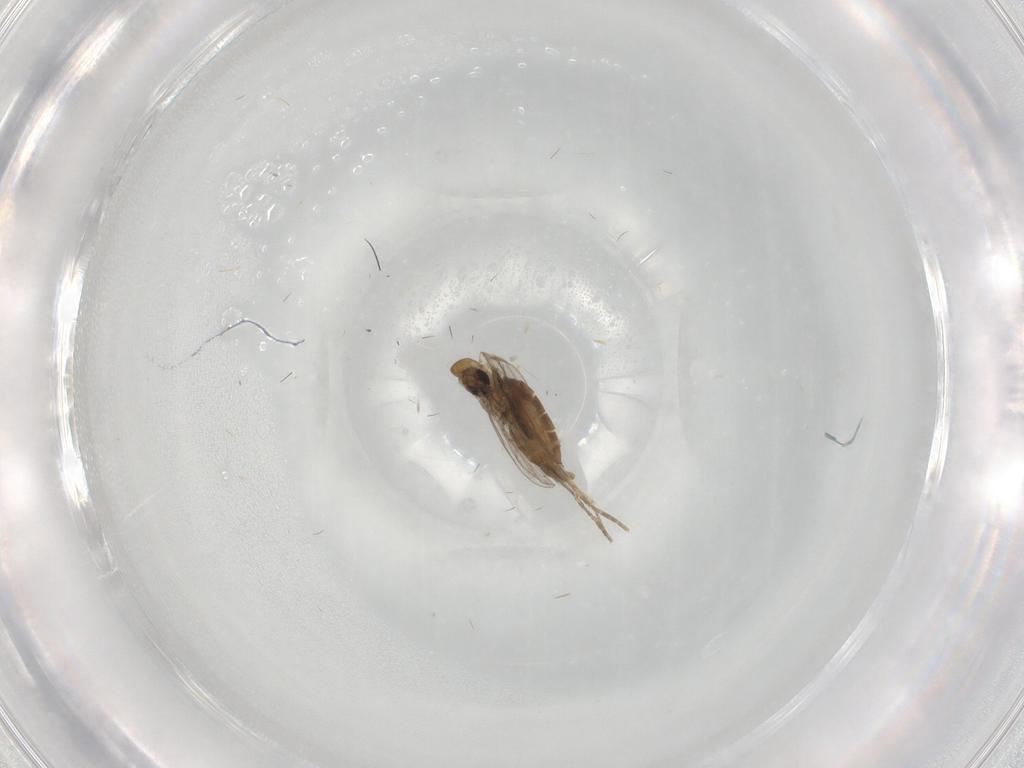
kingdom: Animalia
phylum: Arthropoda
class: Insecta
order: Diptera
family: Psychodidae
